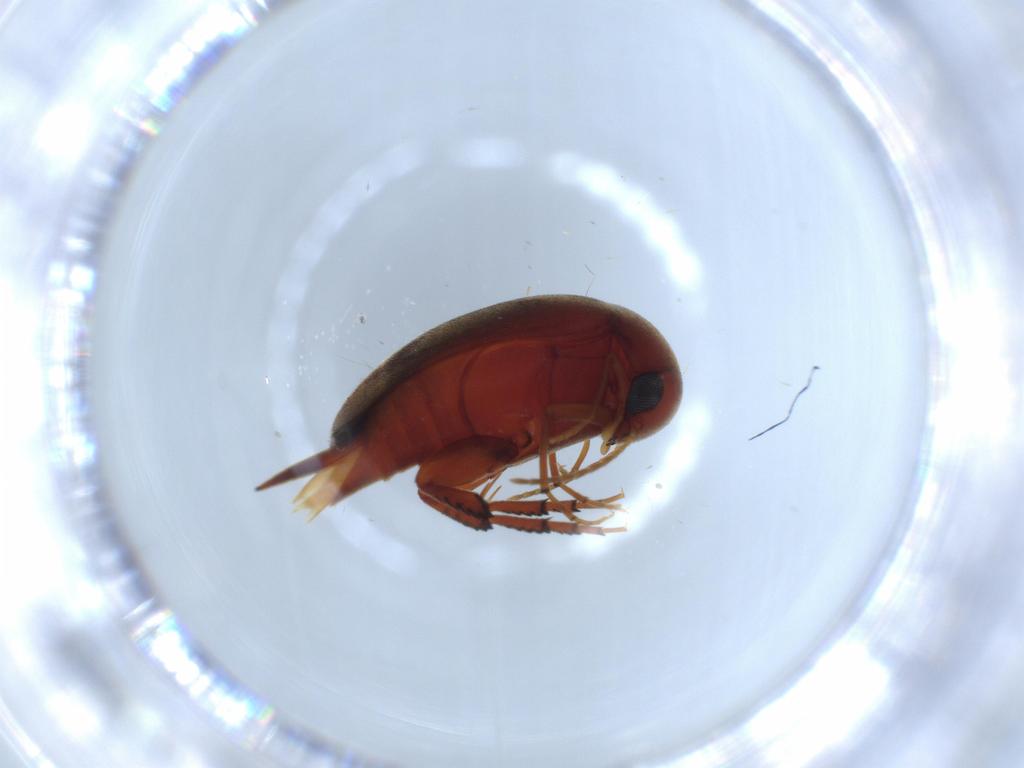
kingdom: Animalia
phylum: Arthropoda
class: Insecta
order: Coleoptera
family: Elateridae
